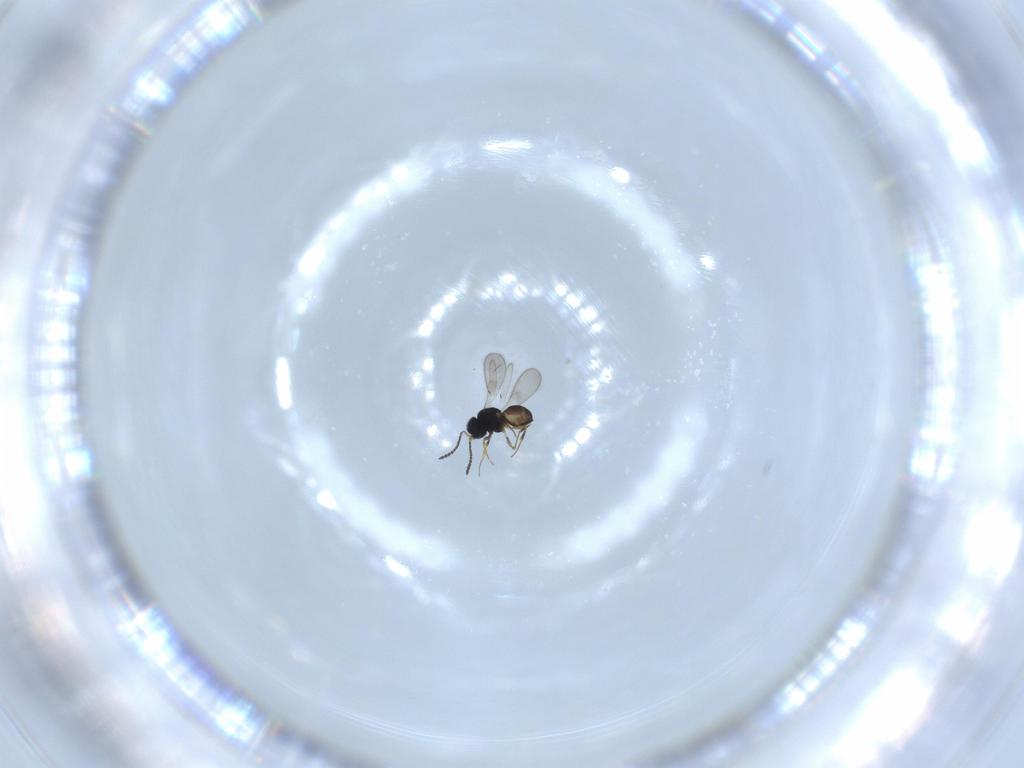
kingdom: Animalia
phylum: Arthropoda
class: Insecta
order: Hymenoptera
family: Scelionidae
